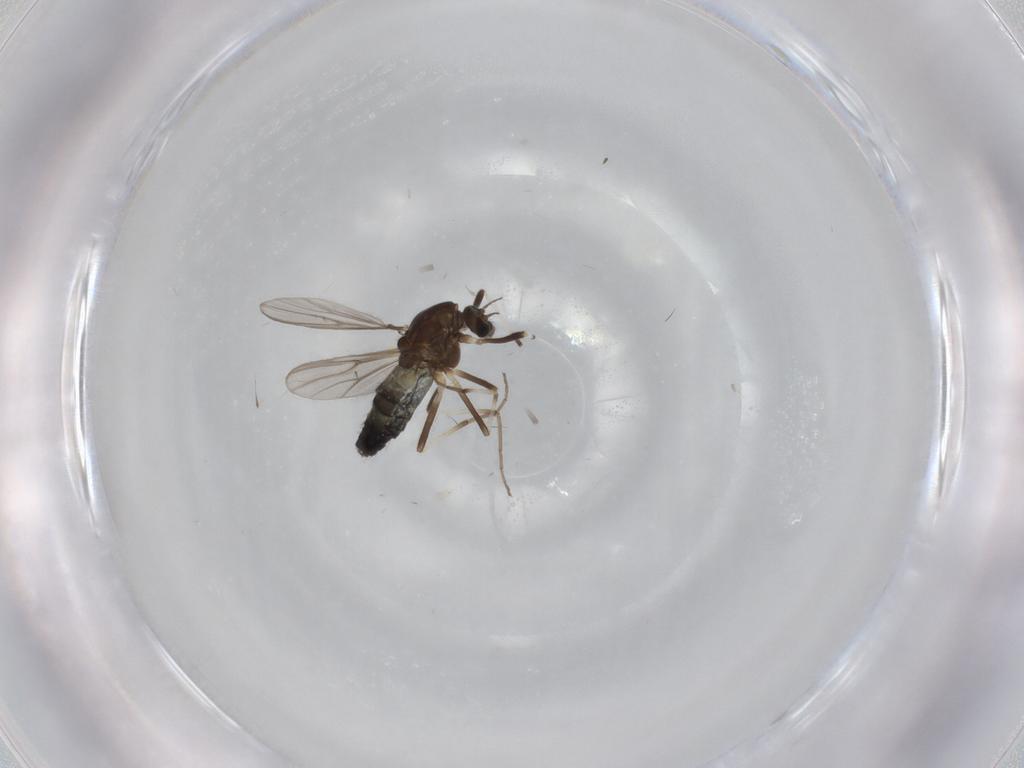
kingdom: Animalia
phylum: Arthropoda
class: Insecta
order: Diptera
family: Chironomidae
